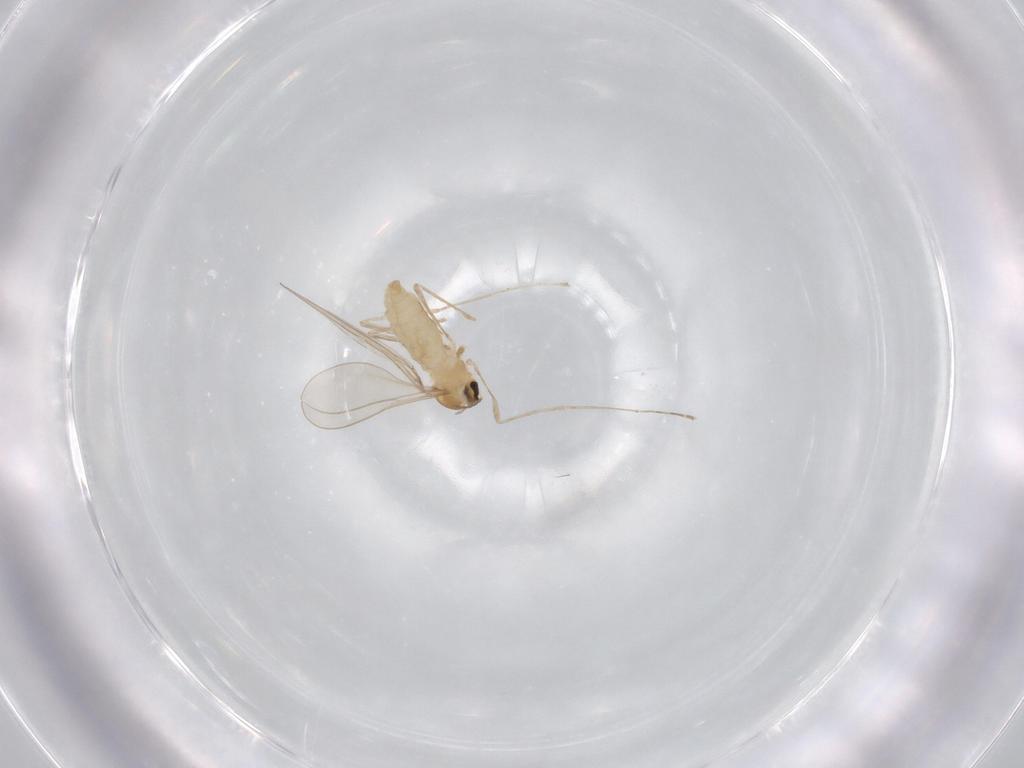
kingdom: Animalia
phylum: Arthropoda
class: Insecta
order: Diptera
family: Cecidomyiidae
